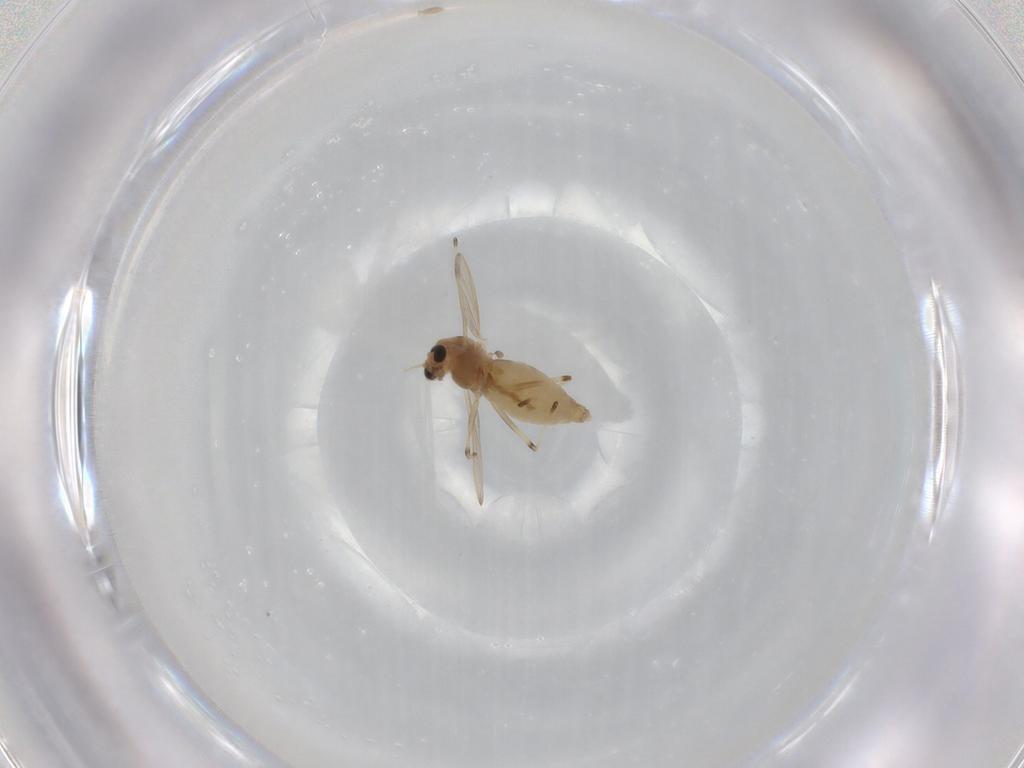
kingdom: Animalia
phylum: Arthropoda
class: Insecta
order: Diptera
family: Chironomidae
